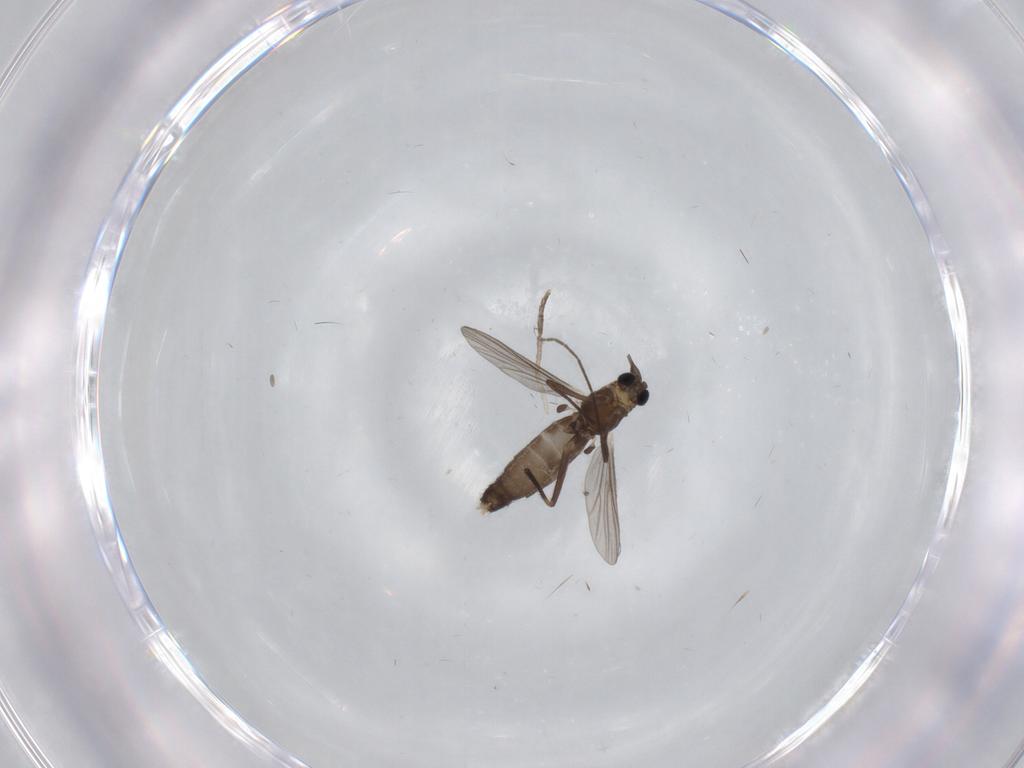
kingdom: Animalia
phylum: Arthropoda
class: Insecta
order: Diptera
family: Chironomidae
